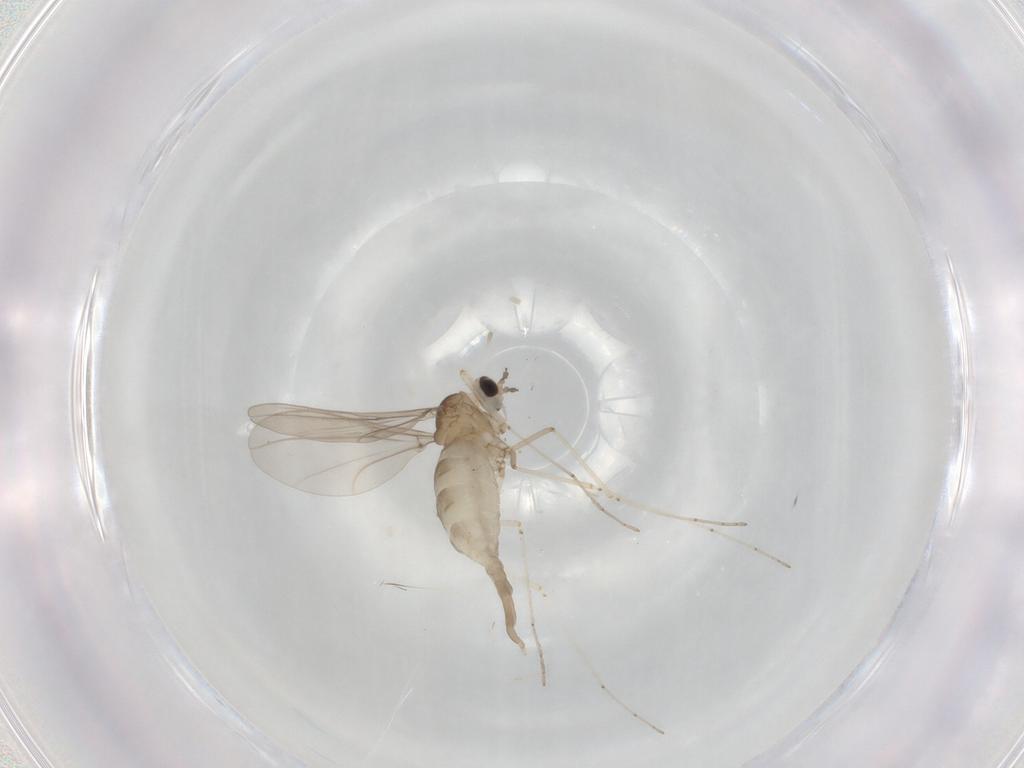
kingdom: Animalia
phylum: Arthropoda
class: Insecta
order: Diptera
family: Cecidomyiidae
